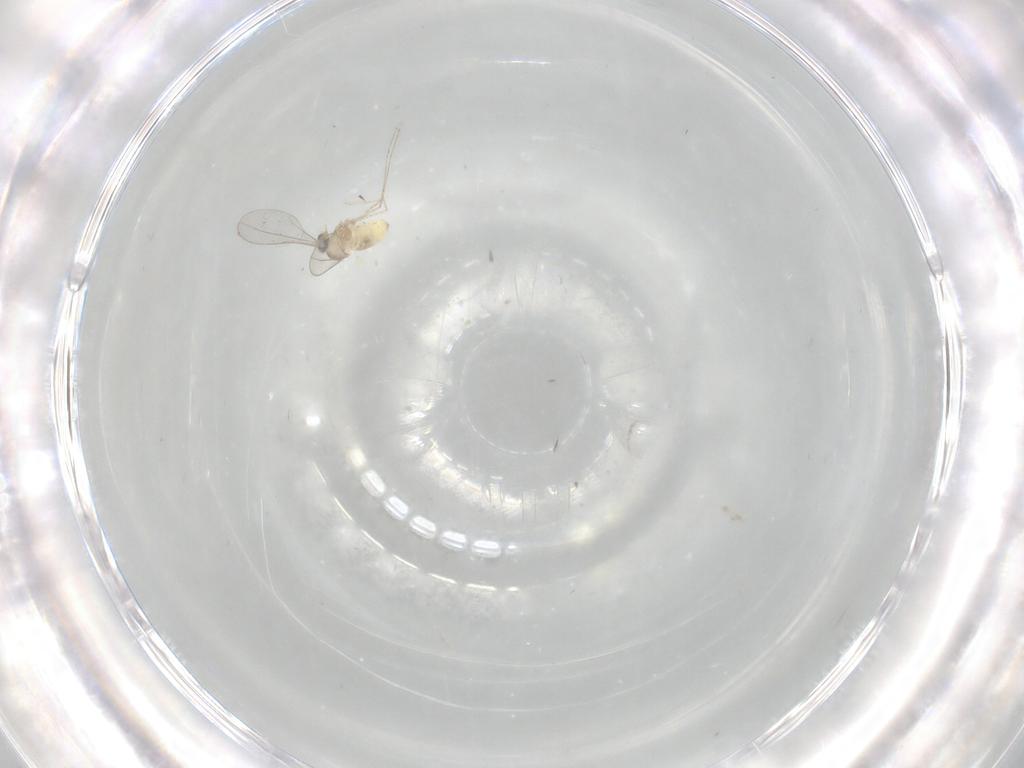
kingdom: Animalia
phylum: Arthropoda
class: Insecta
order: Diptera
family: Cecidomyiidae
